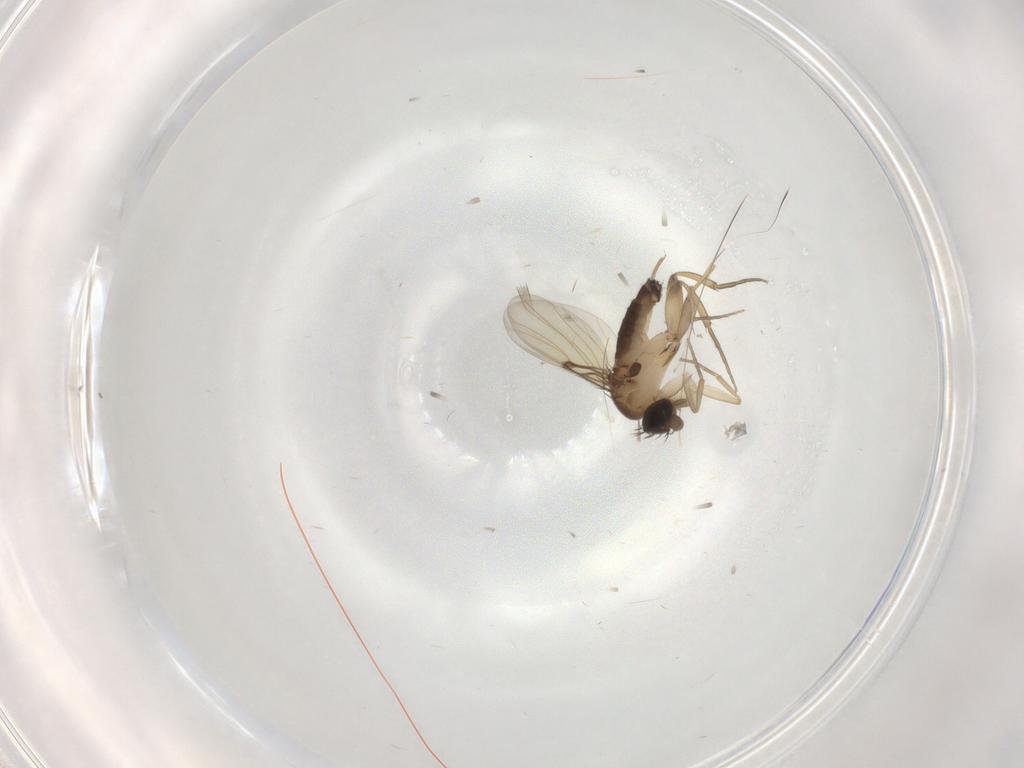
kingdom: Animalia
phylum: Arthropoda
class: Insecta
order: Diptera
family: Phoridae
